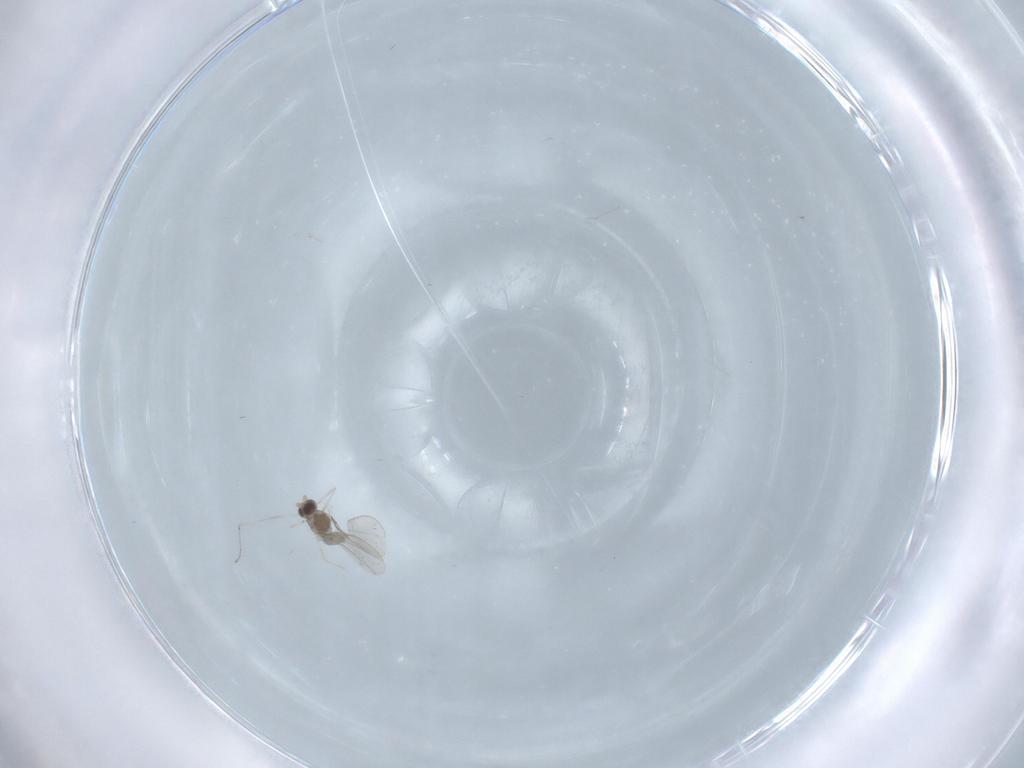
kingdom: Animalia
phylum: Arthropoda
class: Insecta
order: Diptera
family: Cecidomyiidae
